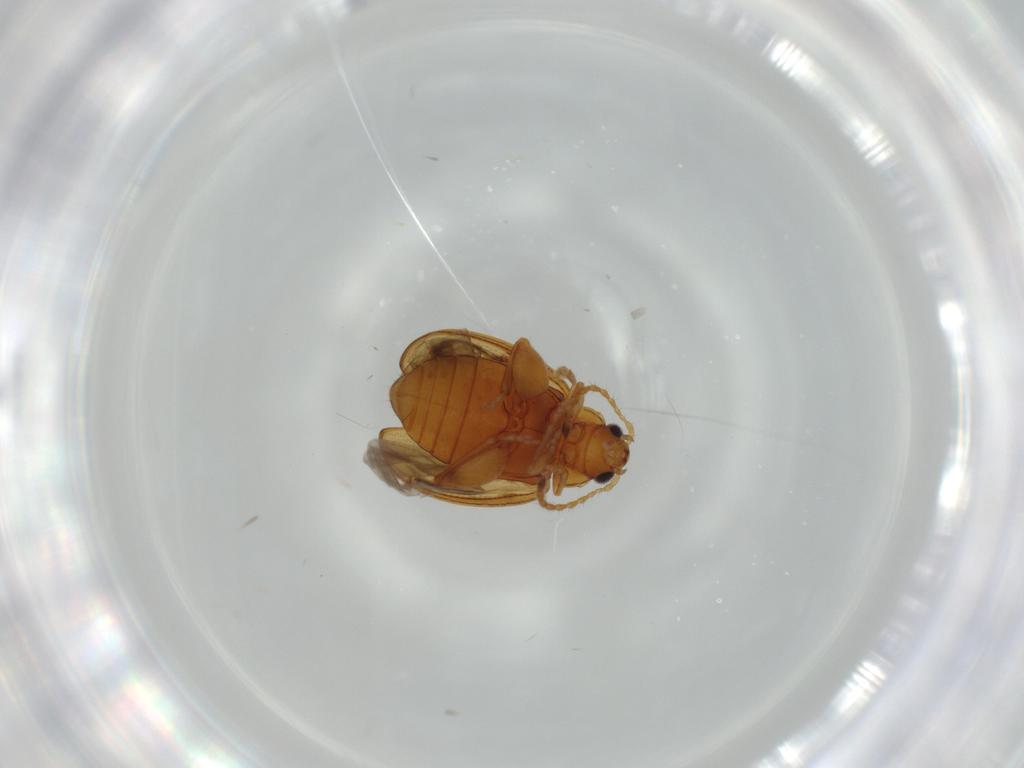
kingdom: Animalia
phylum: Arthropoda
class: Insecta
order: Coleoptera
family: Chrysomelidae
